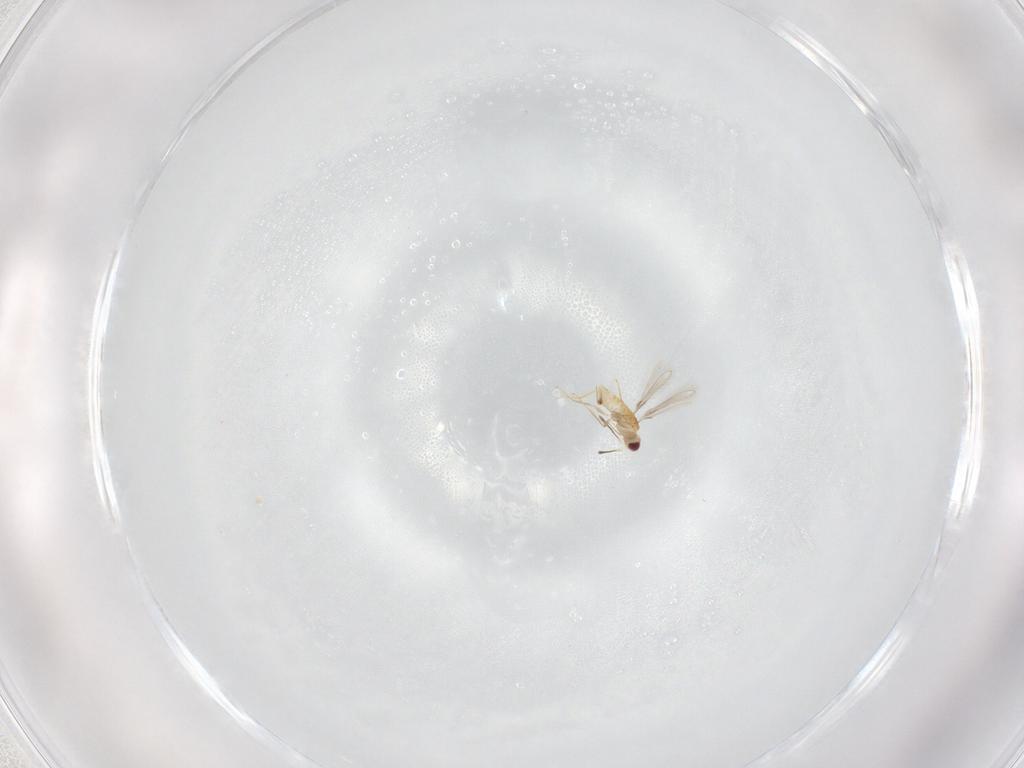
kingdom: Animalia
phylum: Arthropoda
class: Insecta
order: Hymenoptera
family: Mymaridae
